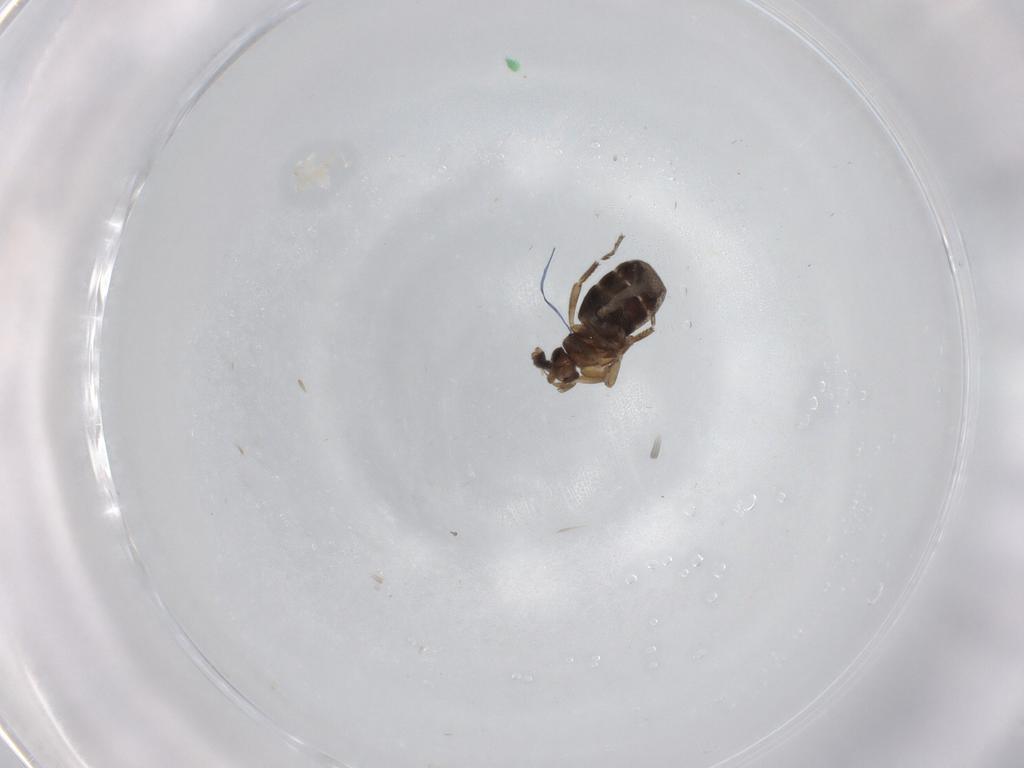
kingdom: Animalia
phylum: Arthropoda
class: Insecta
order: Diptera
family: Phoridae
